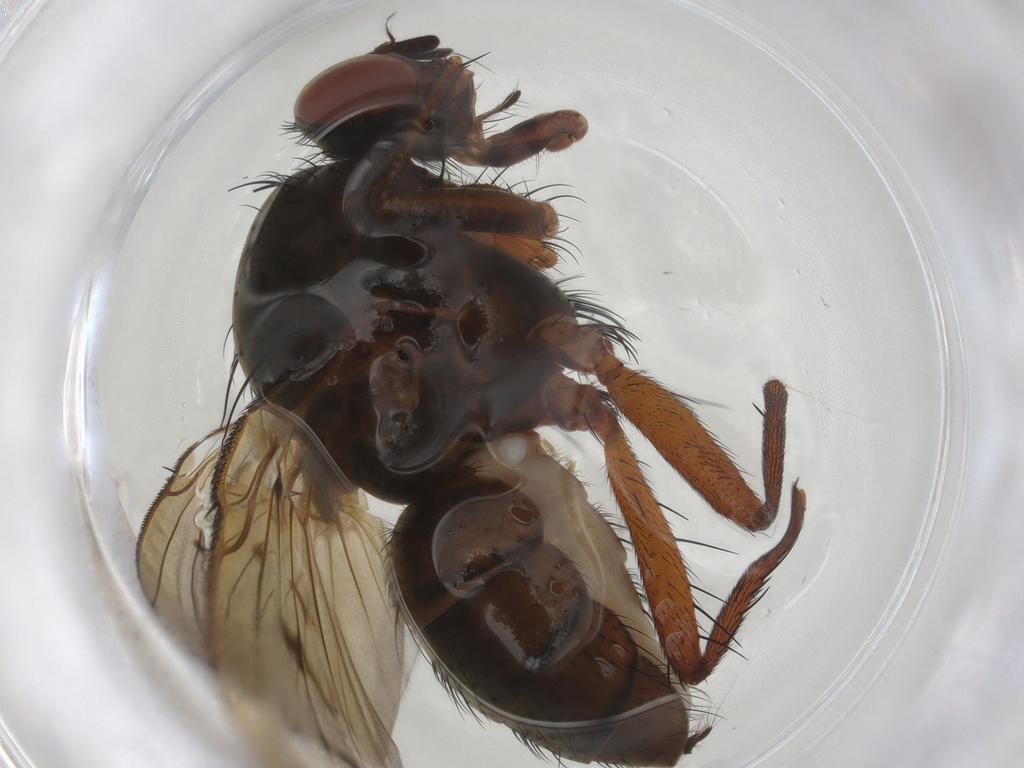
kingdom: Animalia
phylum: Arthropoda
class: Insecta
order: Diptera
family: Anthomyiidae
